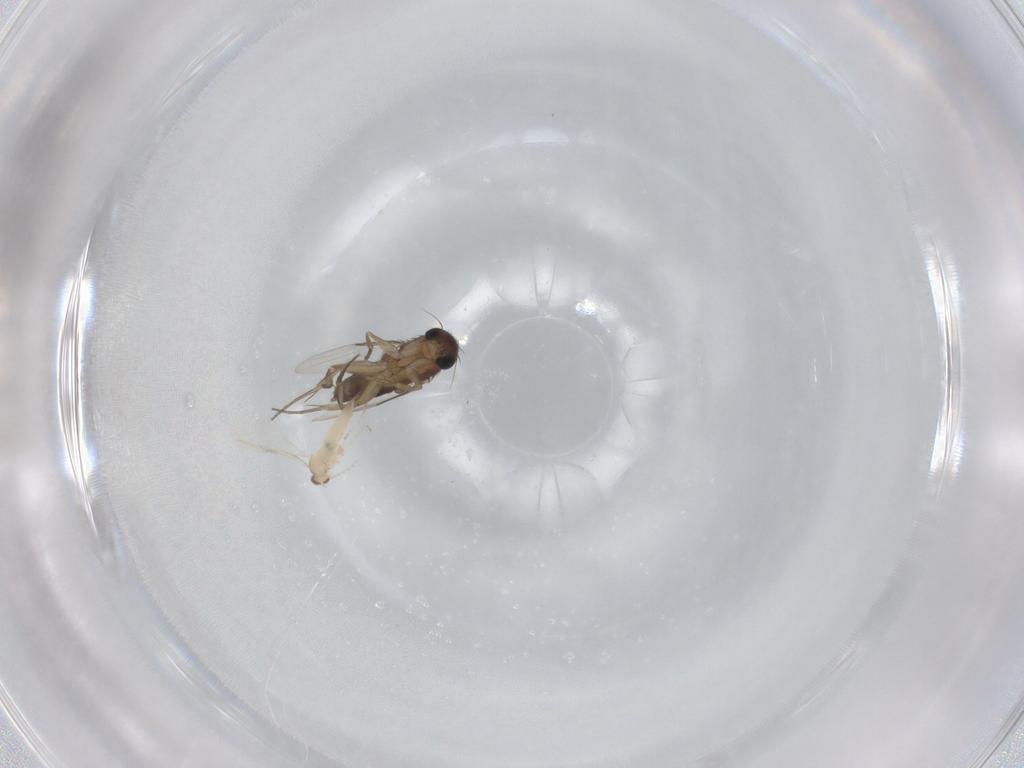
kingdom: Animalia
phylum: Arthropoda
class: Insecta
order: Diptera
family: Phoridae
